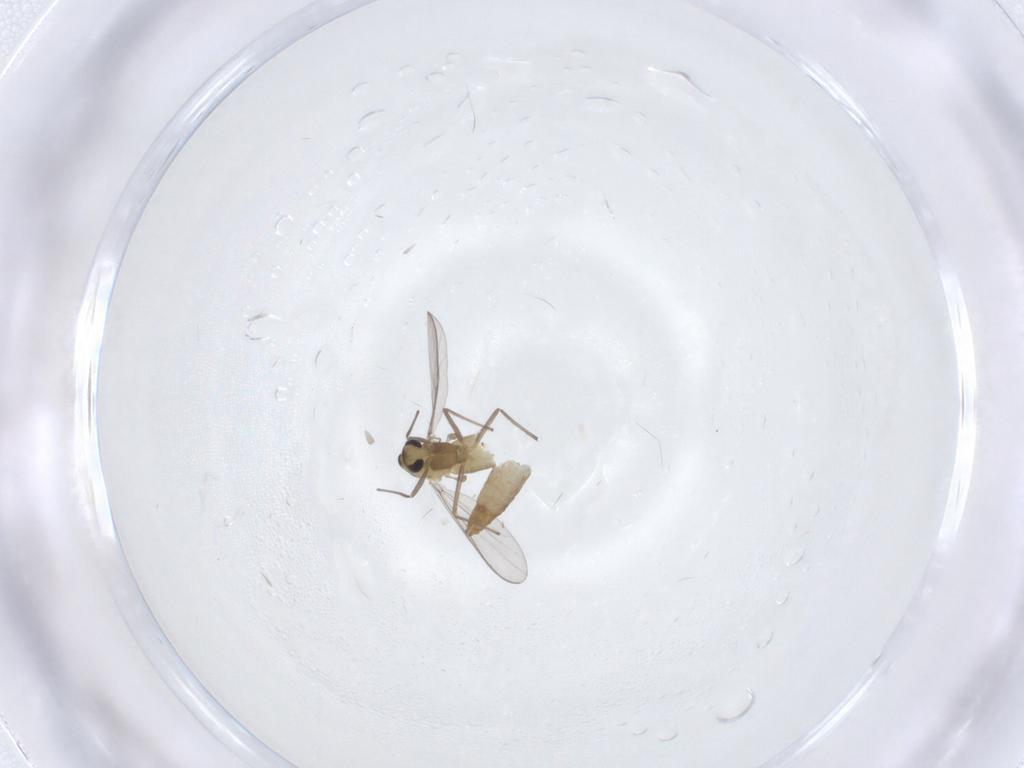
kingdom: Animalia
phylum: Arthropoda
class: Insecta
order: Diptera
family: Chironomidae
